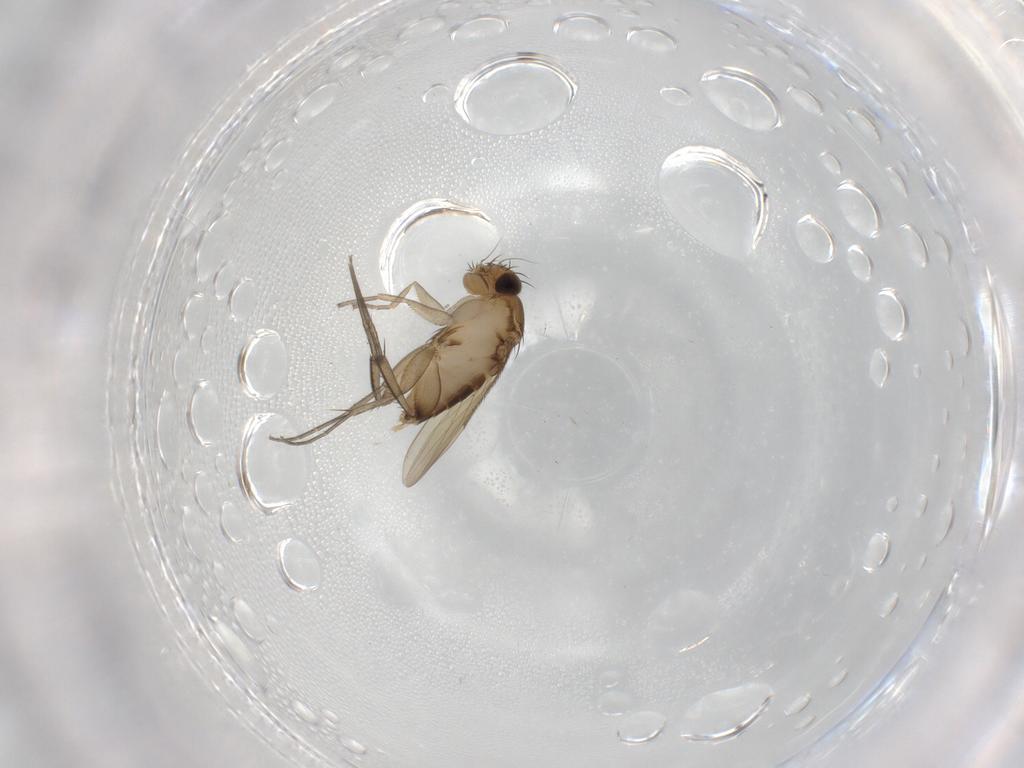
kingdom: Animalia
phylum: Arthropoda
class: Insecta
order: Diptera
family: Phoridae
